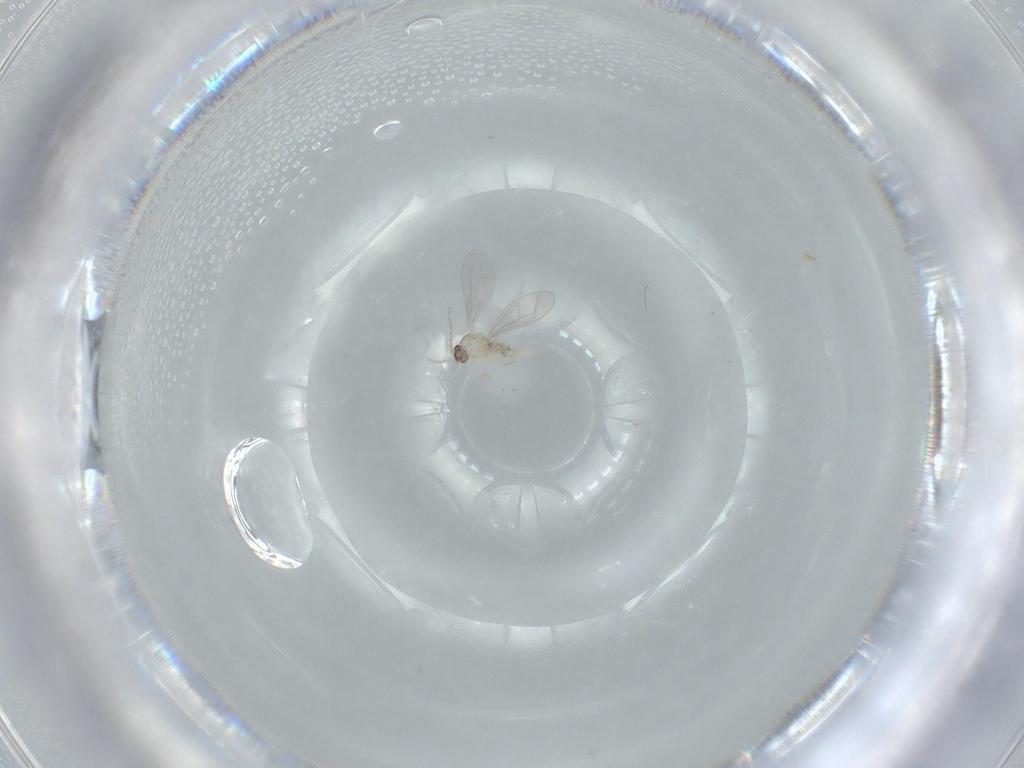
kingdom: Animalia
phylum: Arthropoda
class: Insecta
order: Diptera
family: Cecidomyiidae
